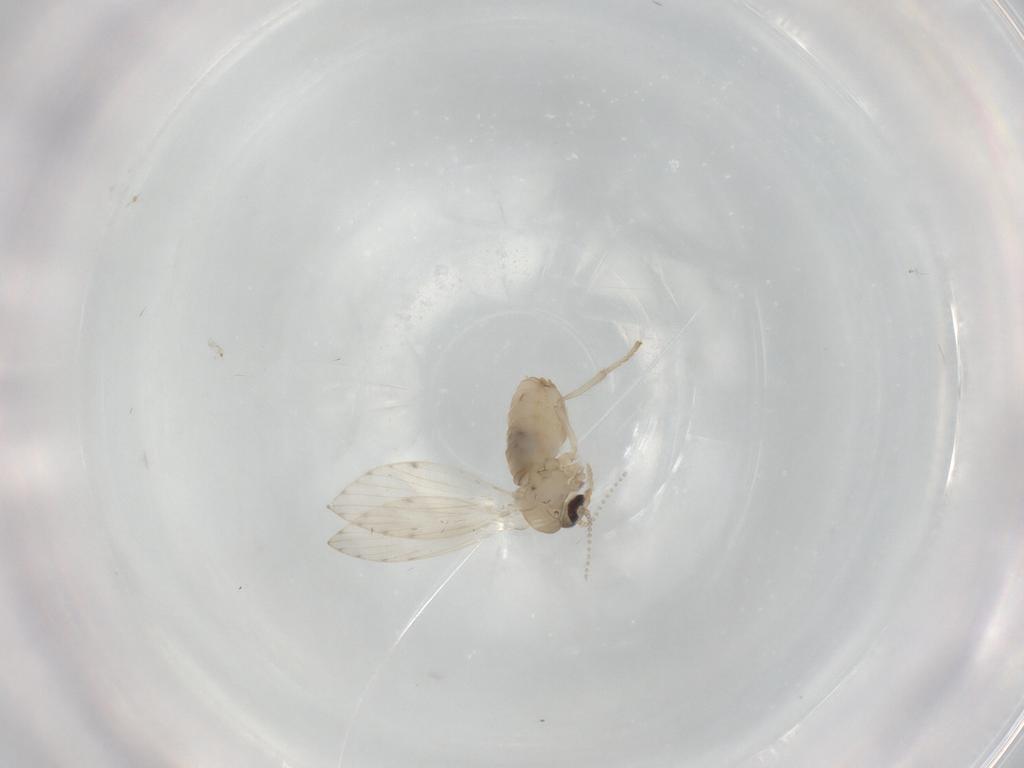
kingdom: Animalia
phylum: Arthropoda
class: Insecta
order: Diptera
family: Psychodidae
